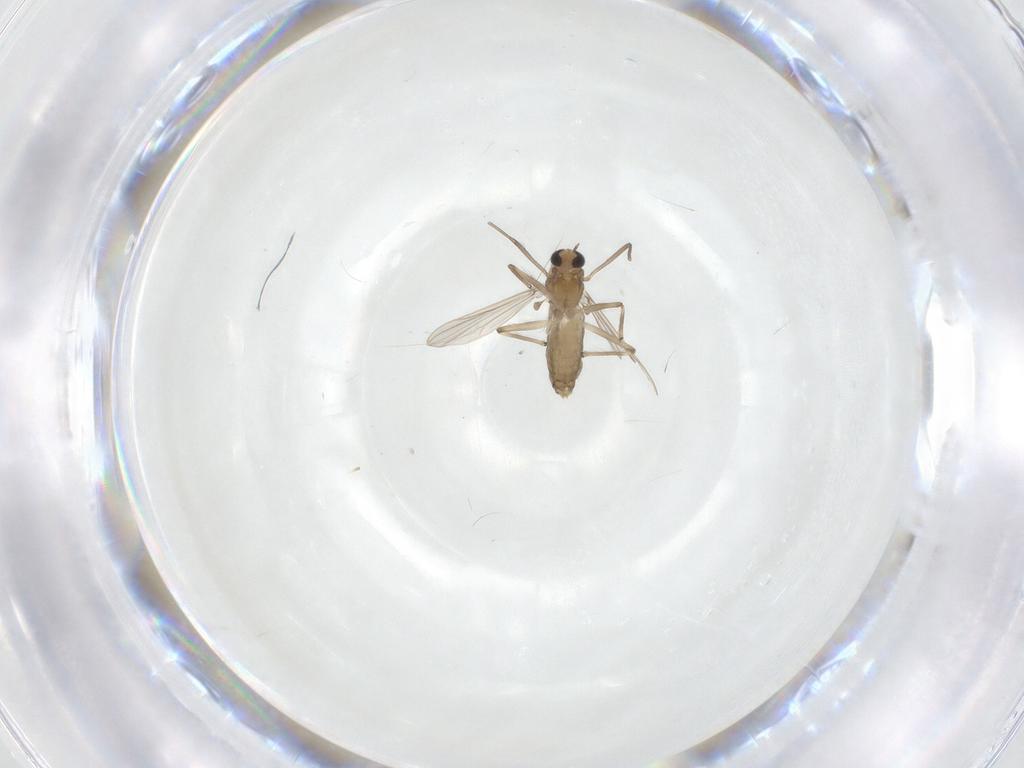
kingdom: Animalia
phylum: Arthropoda
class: Insecta
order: Diptera
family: Chironomidae
